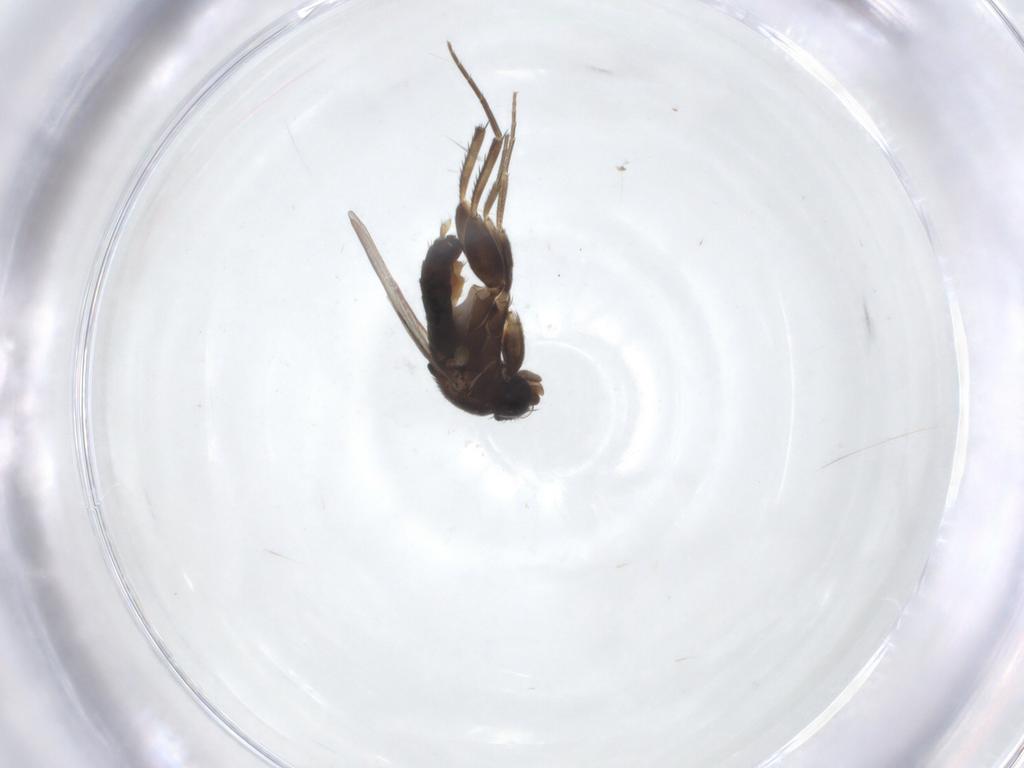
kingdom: Animalia
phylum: Arthropoda
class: Insecta
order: Diptera
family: Phoridae
